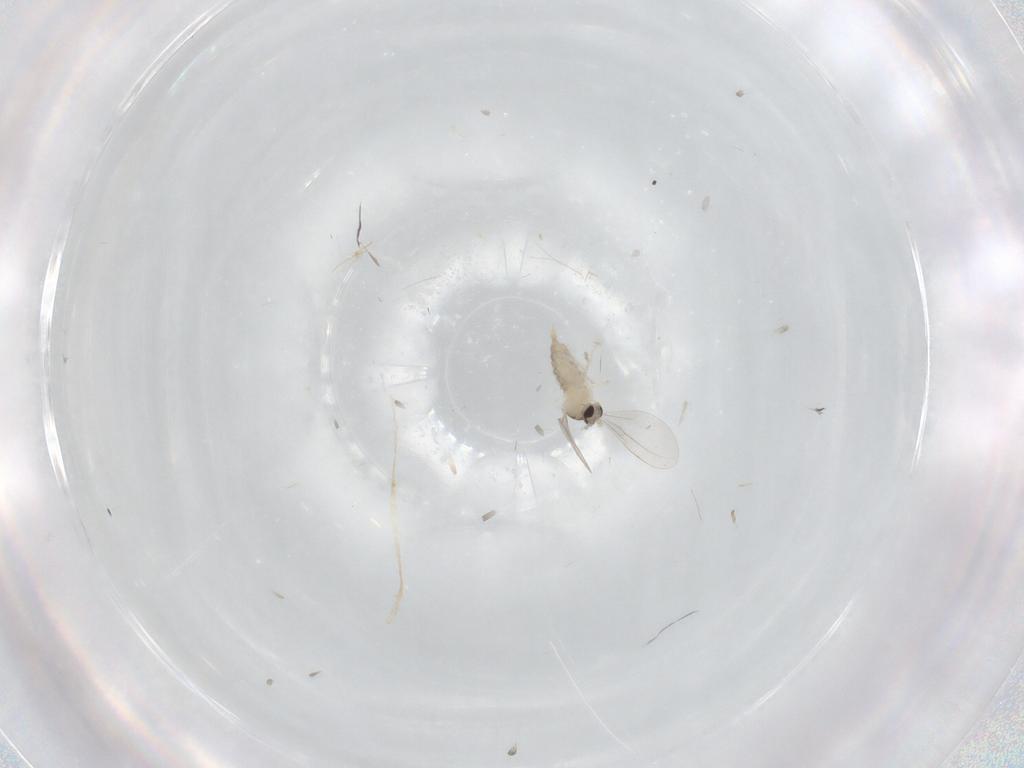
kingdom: Animalia
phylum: Arthropoda
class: Insecta
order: Diptera
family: Cecidomyiidae
